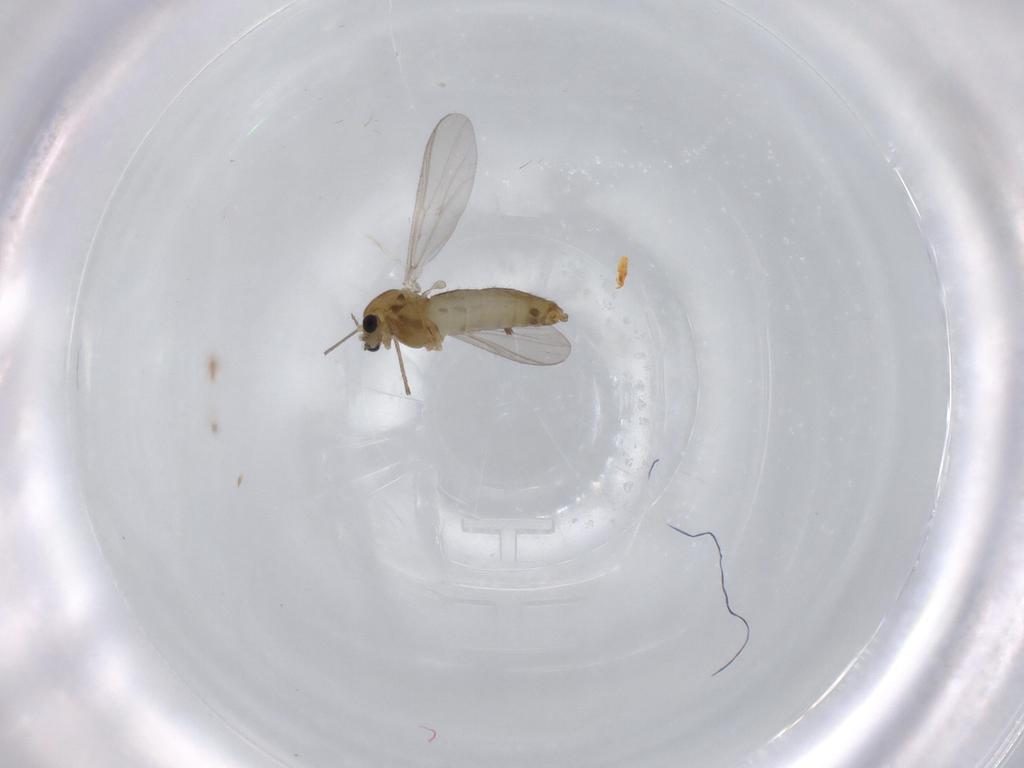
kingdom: Animalia
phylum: Arthropoda
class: Insecta
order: Diptera
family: Chironomidae
